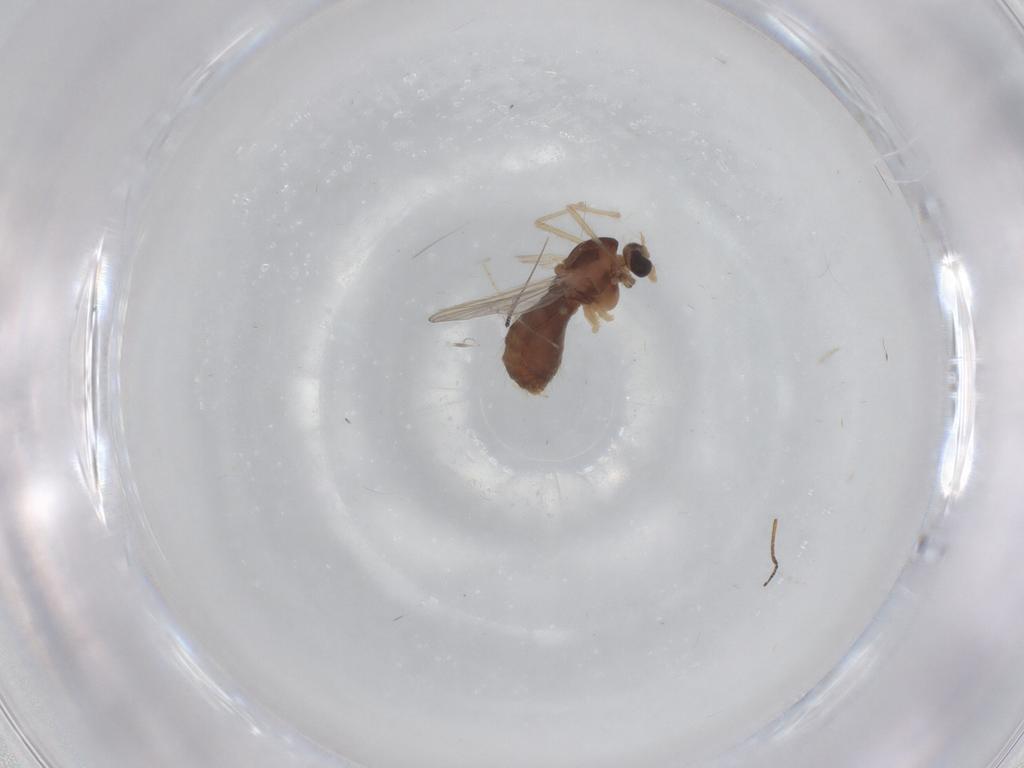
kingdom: Animalia
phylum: Arthropoda
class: Insecta
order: Diptera
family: Chironomidae
